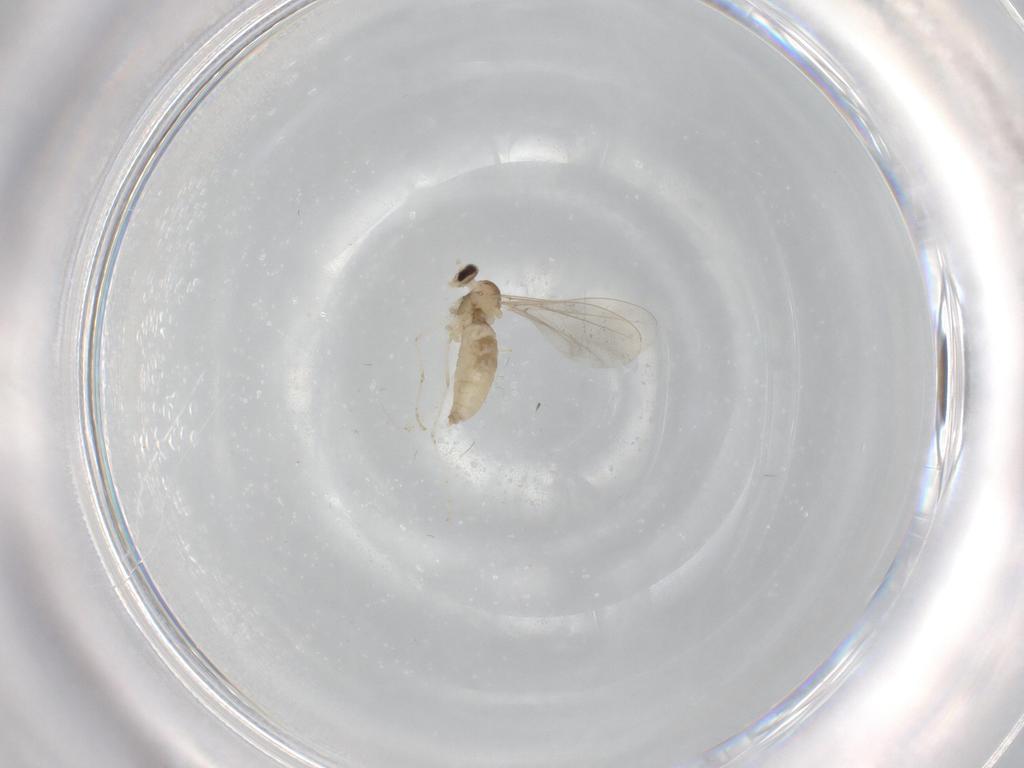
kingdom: Animalia
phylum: Arthropoda
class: Insecta
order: Diptera
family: Cecidomyiidae
